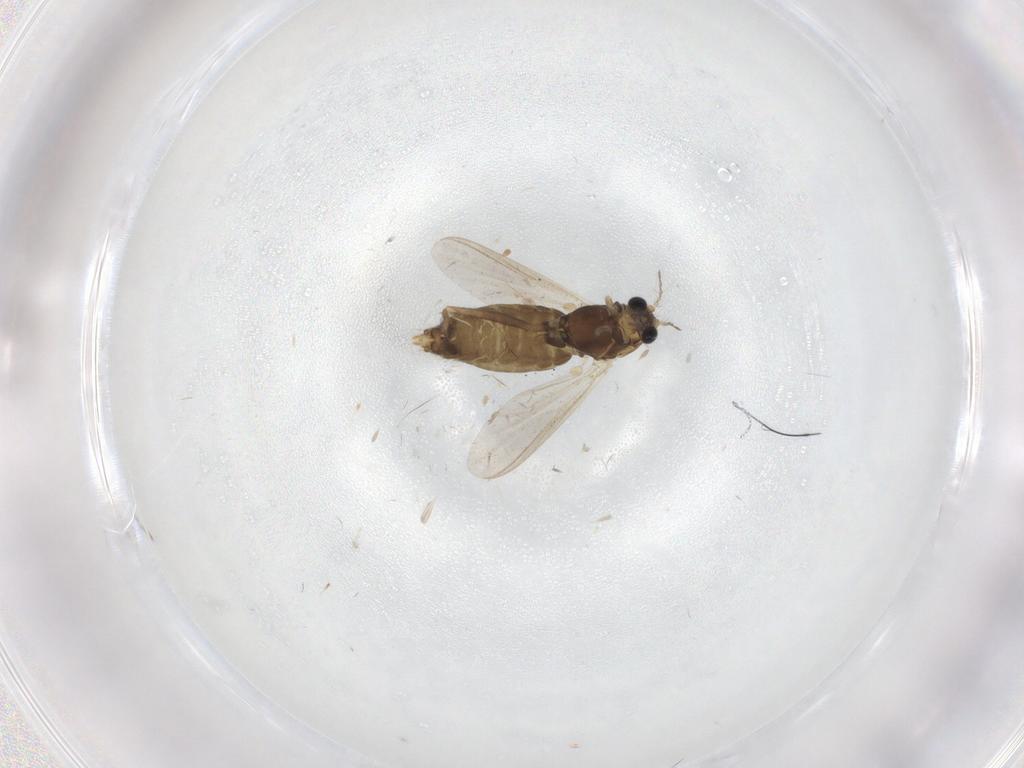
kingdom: Animalia
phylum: Arthropoda
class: Insecta
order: Diptera
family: Chironomidae
